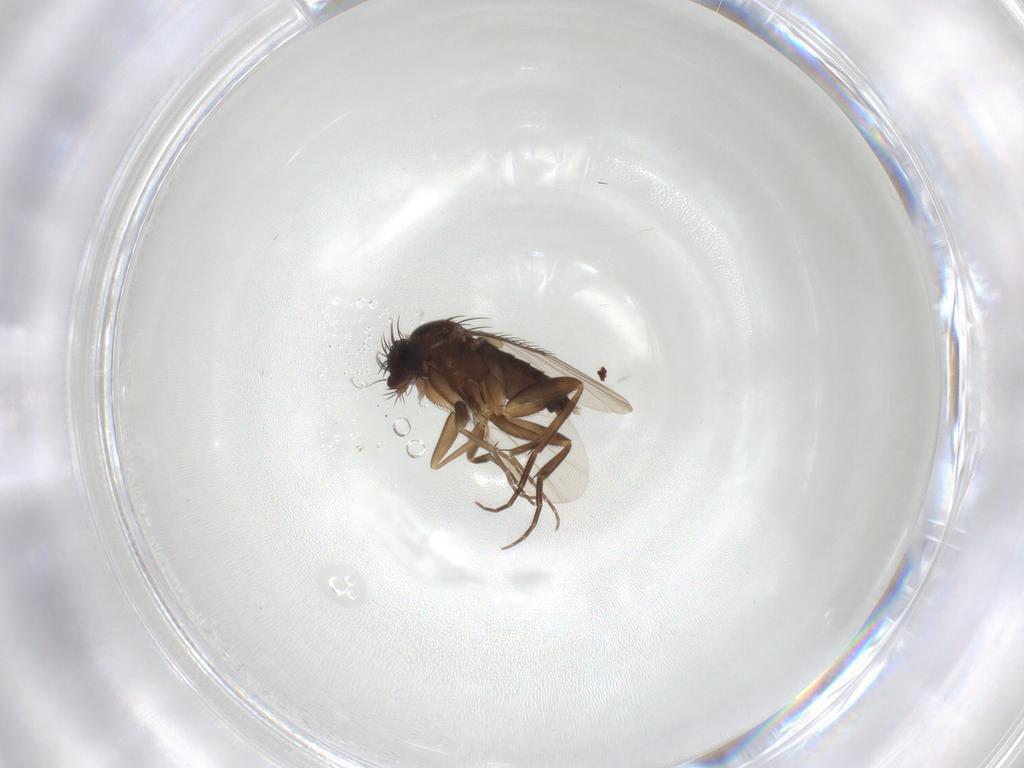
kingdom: Animalia
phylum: Arthropoda
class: Insecta
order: Diptera
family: Phoridae
